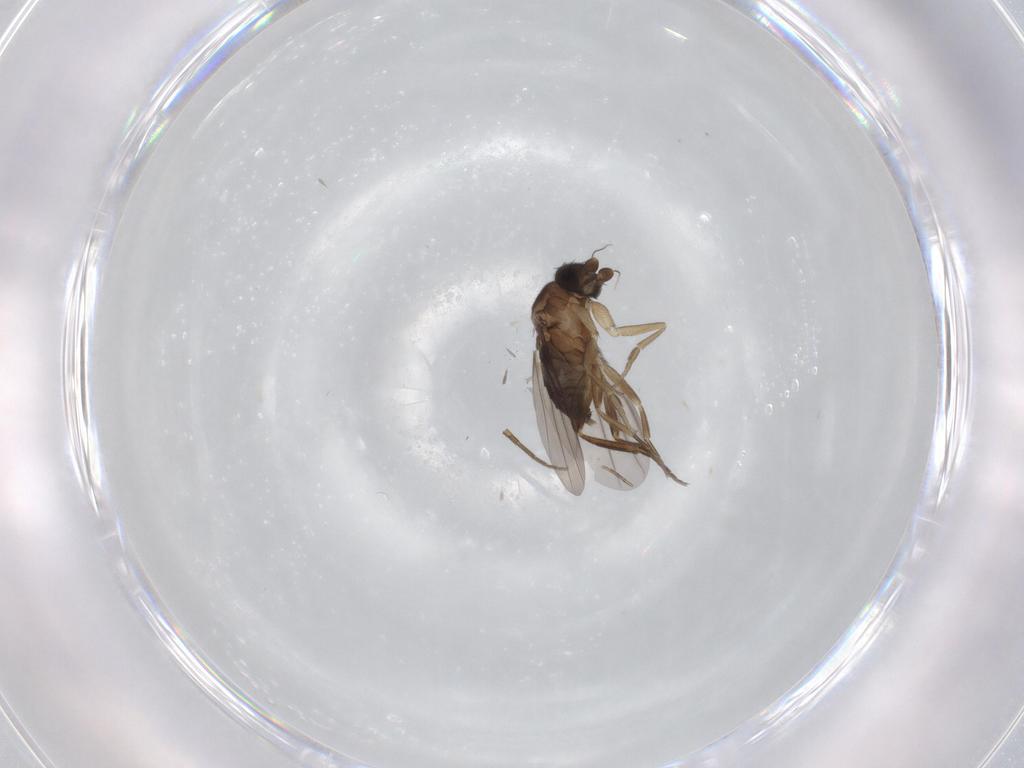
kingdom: Animalia
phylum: Arthropoda
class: Insecta
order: Diptera
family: Phoridae
